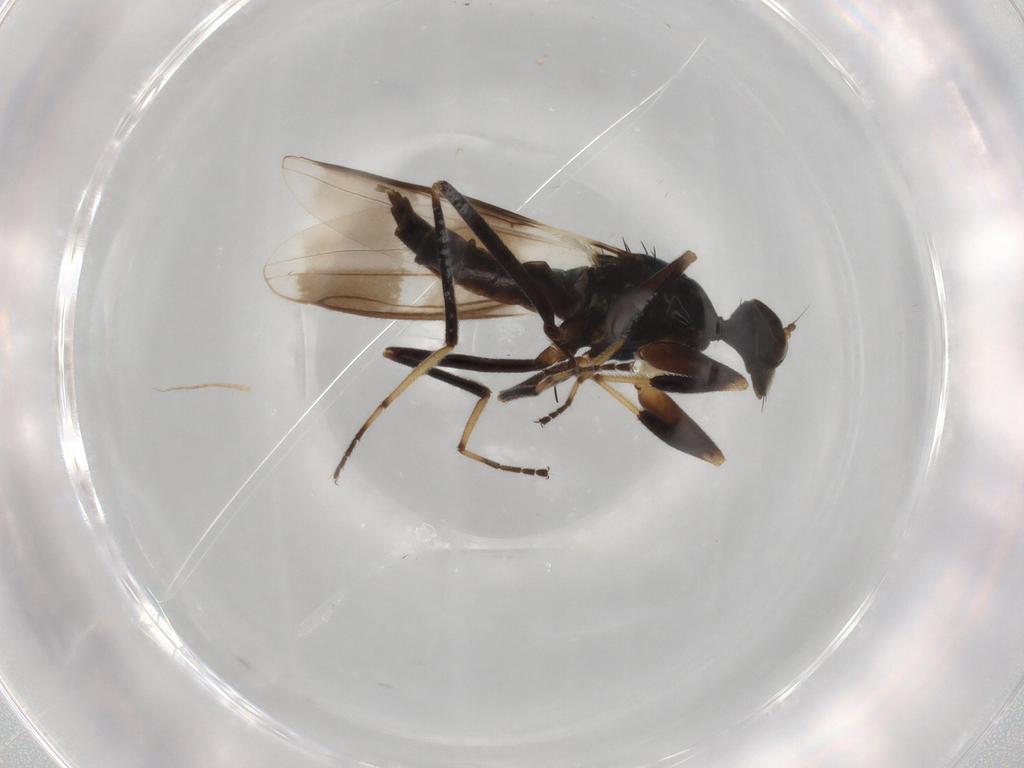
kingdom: Animalia
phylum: Arthropoda
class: Insecta
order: Diptera
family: Hybotidae
